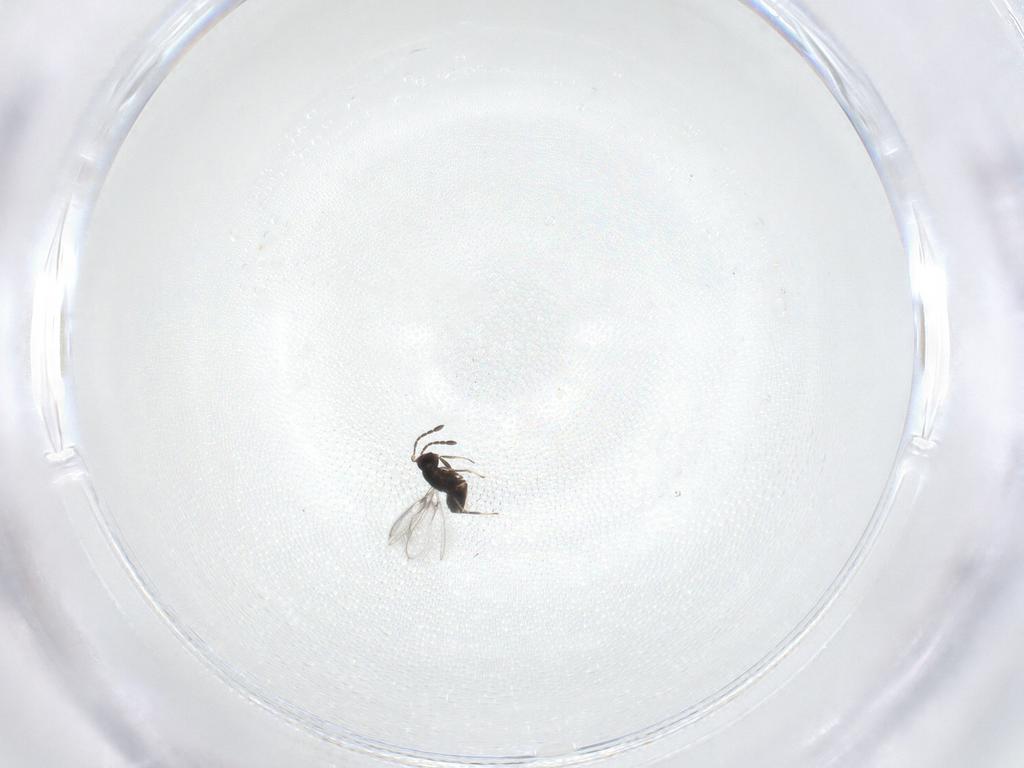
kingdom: Animalia
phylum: Arthropoda
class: Insecta
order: Hymenoptera
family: Mymaridae
